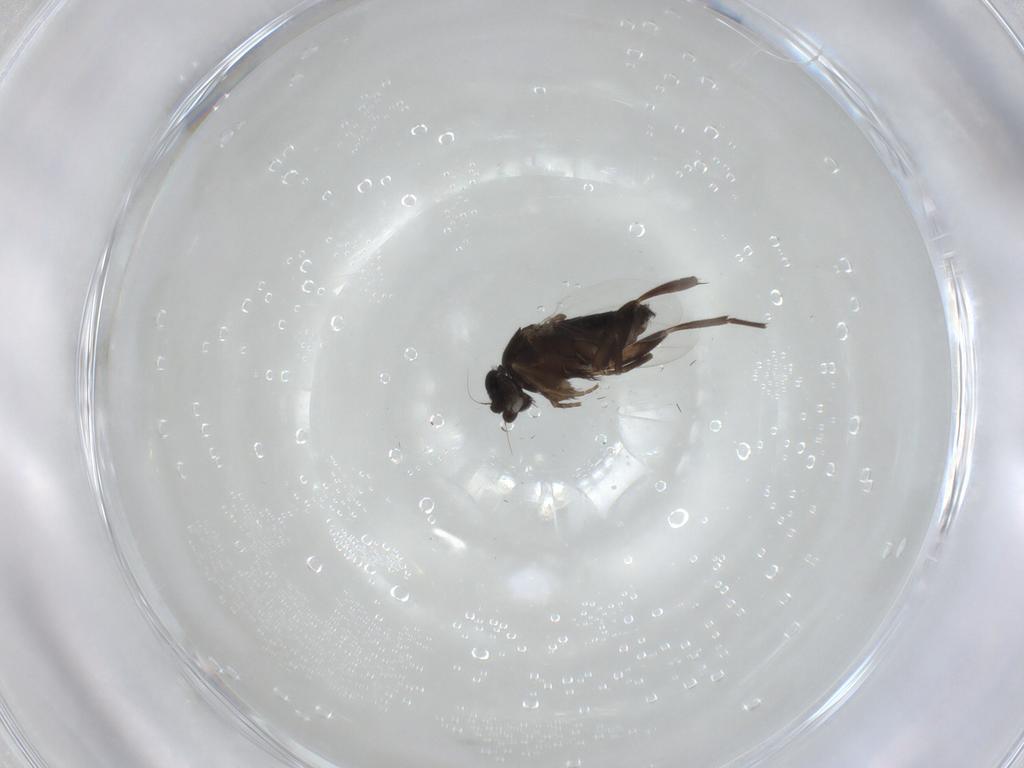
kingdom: Animalia
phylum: Arthropoda
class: Insecta
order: Diptera
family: Phoridae
